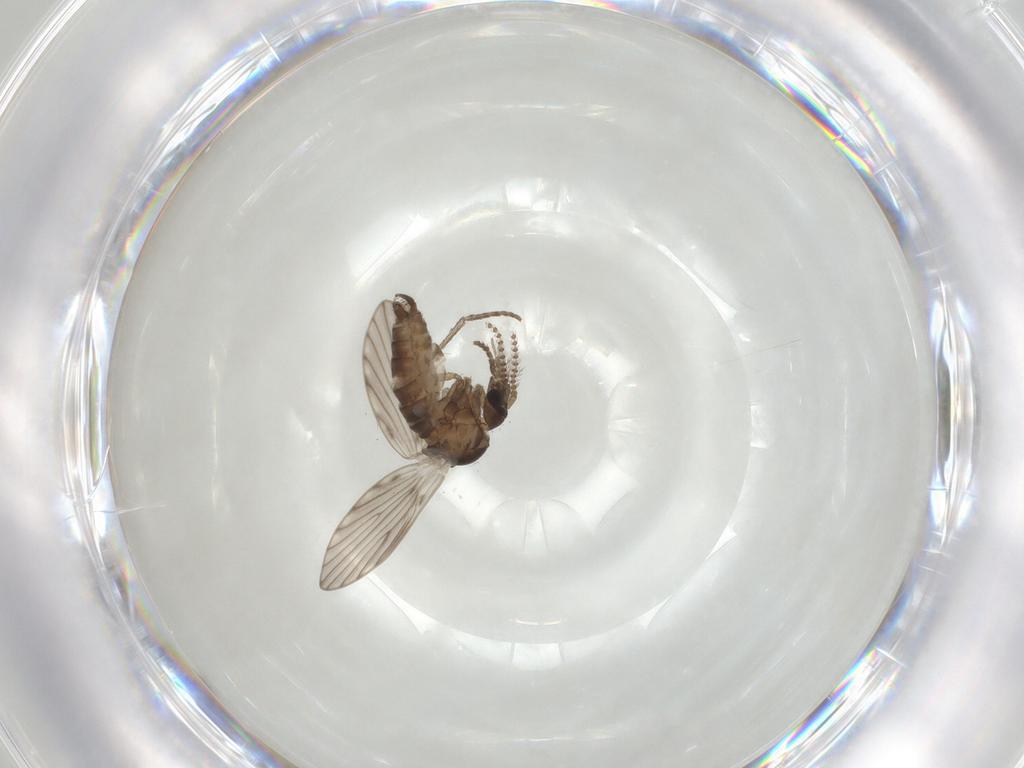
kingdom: Animalia
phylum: Arthropoda
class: Insecta
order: Diptera
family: Psychodidae
